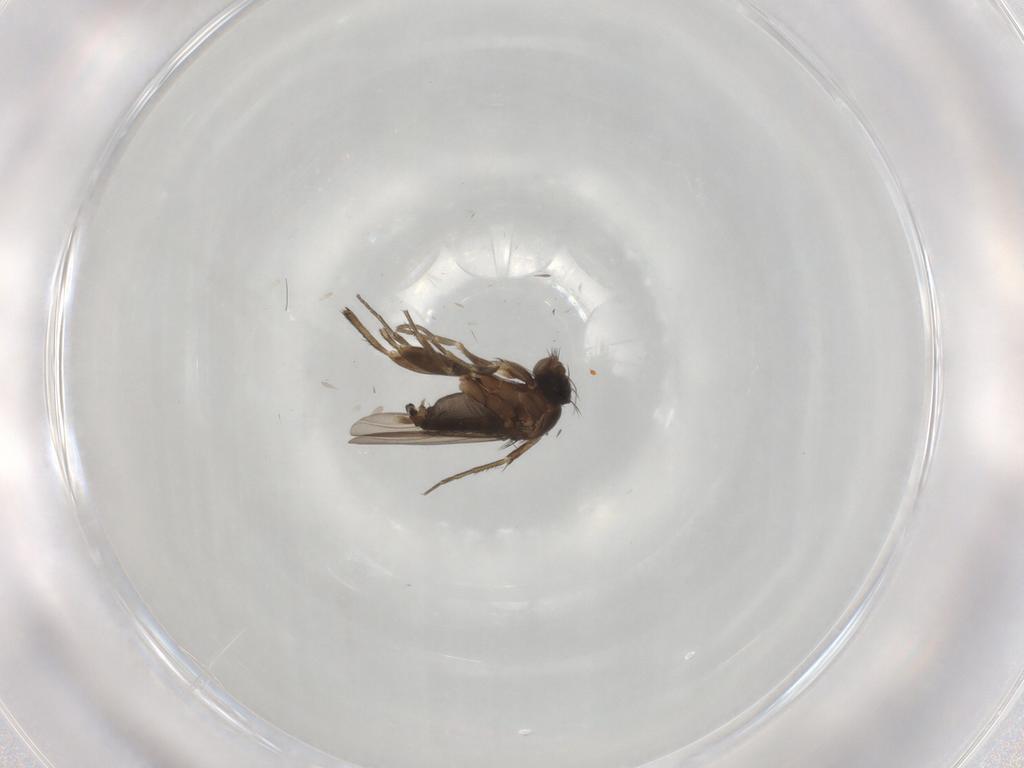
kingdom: Animalia
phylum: Arthropoda
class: Insecta
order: Diptera
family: Phoridae
